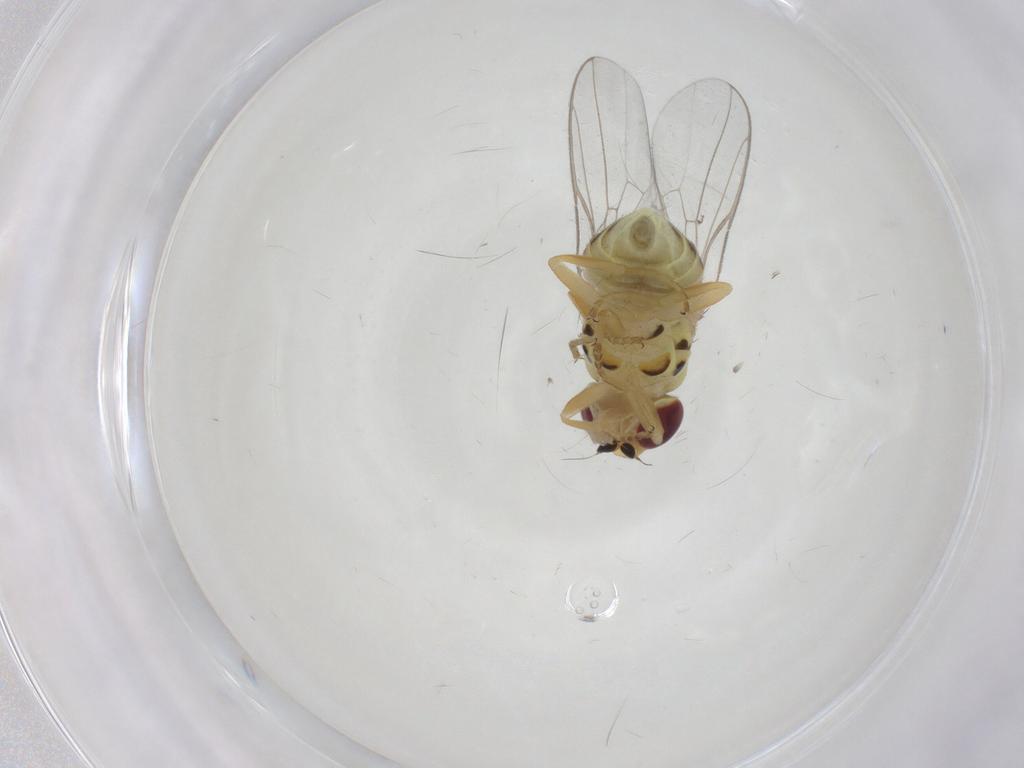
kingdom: Animalia
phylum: Arthropoda
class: Insecta
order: Diptera
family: Chloropidae
